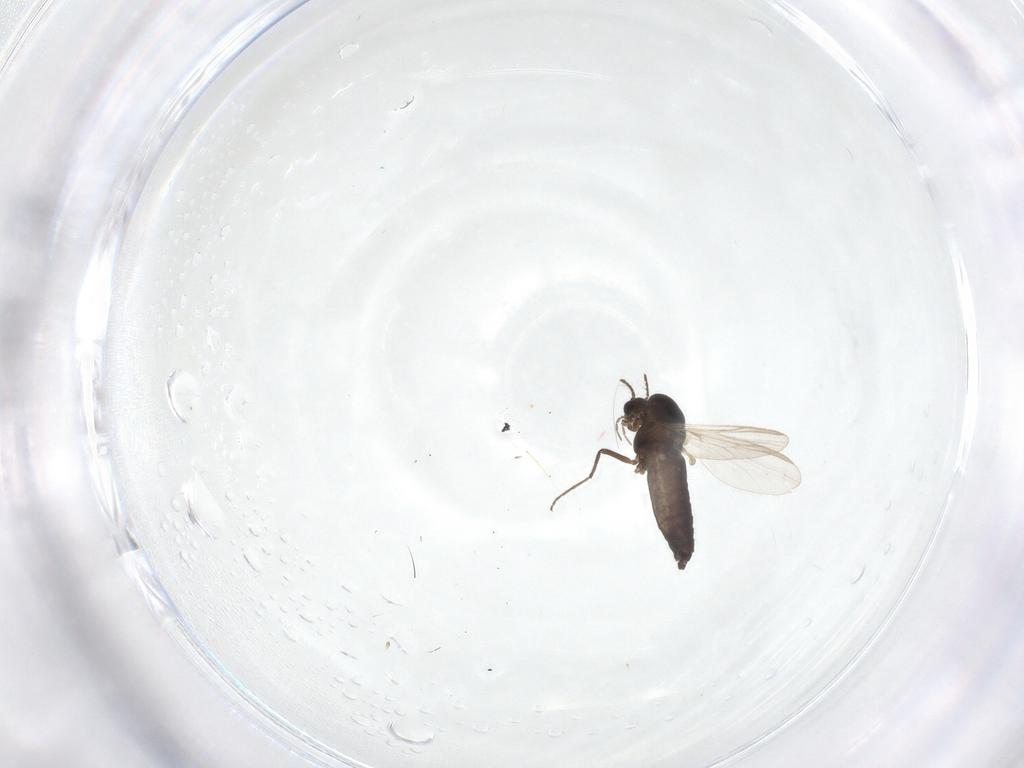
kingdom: Animalia
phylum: Arthropoda
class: Insecta
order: Diptera
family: Chironomidae
